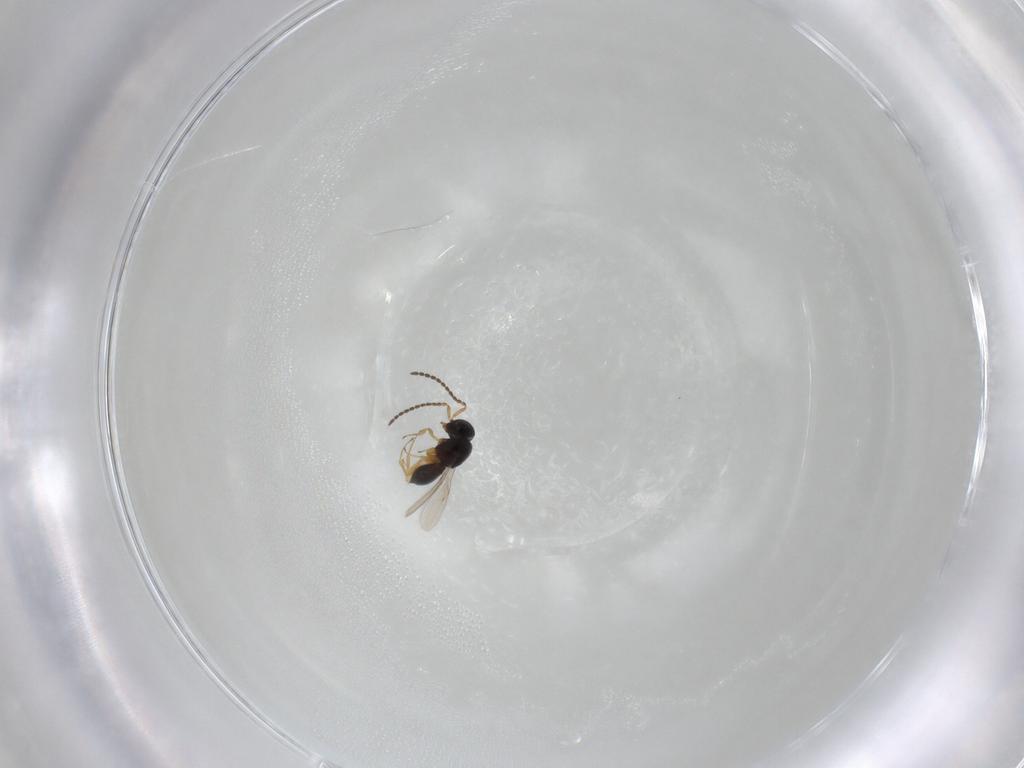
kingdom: Animalia
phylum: Arthropoda
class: Insecta
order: Hymenoptera
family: Scelionidae
